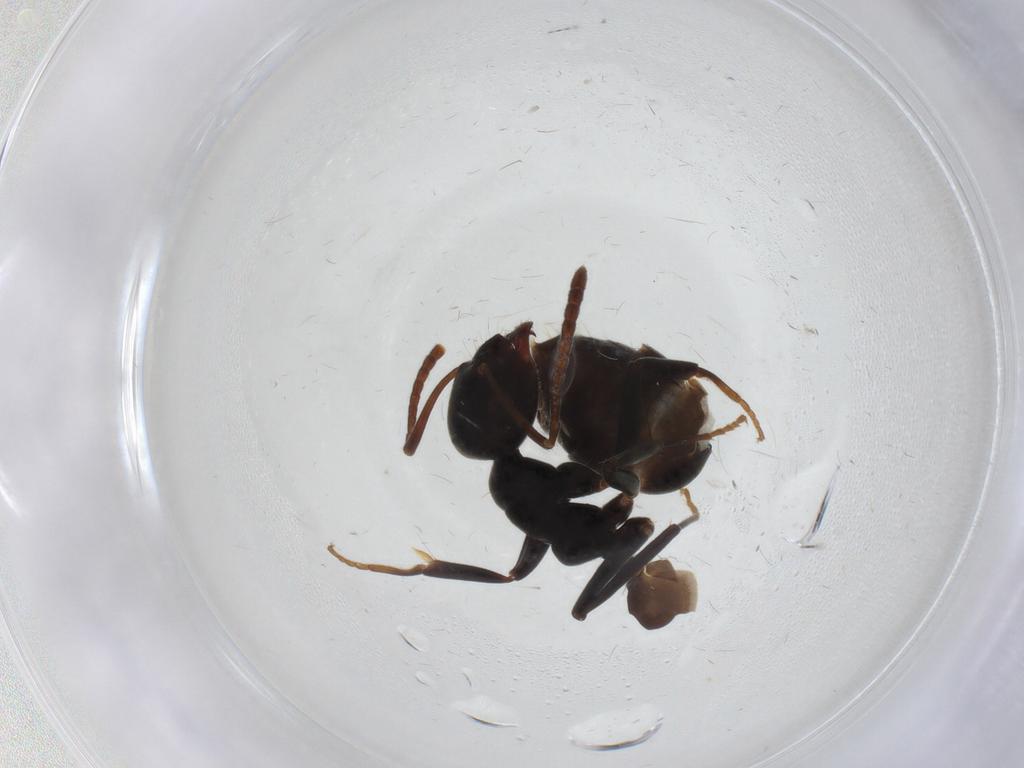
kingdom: Animalia
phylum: Arthropoda
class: Insecta
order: Hymenoptera
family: Formicidae
